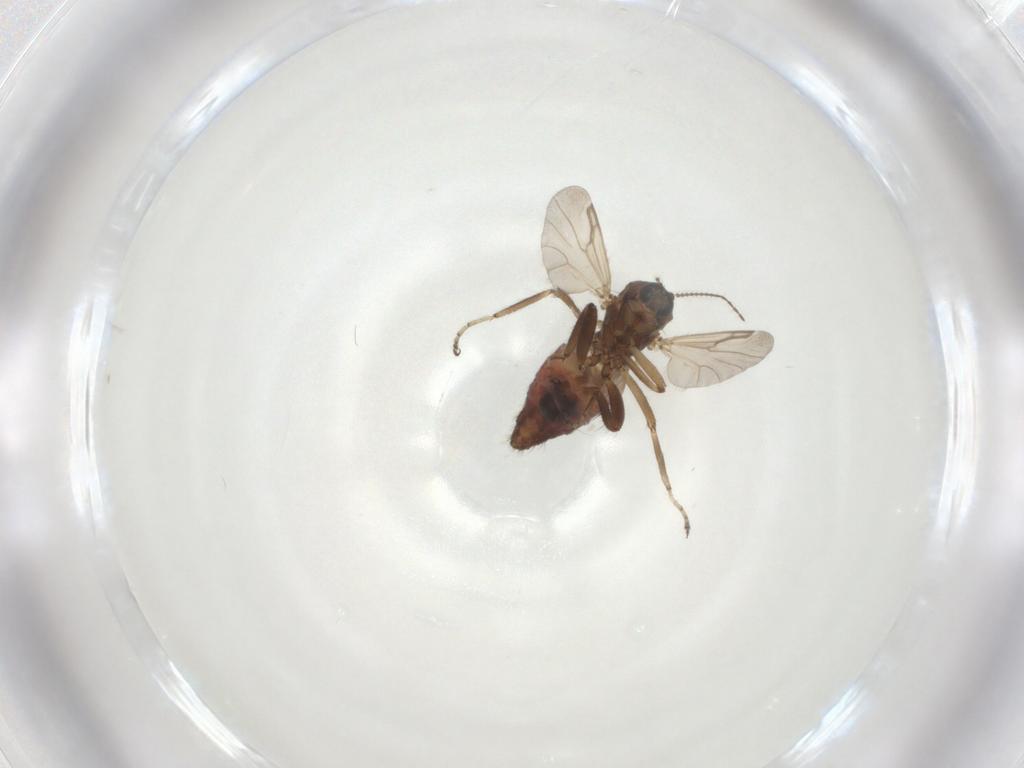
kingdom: Animalia
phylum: Arthropoda
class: Insecta
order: Diptera
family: Ceratopogonidae
